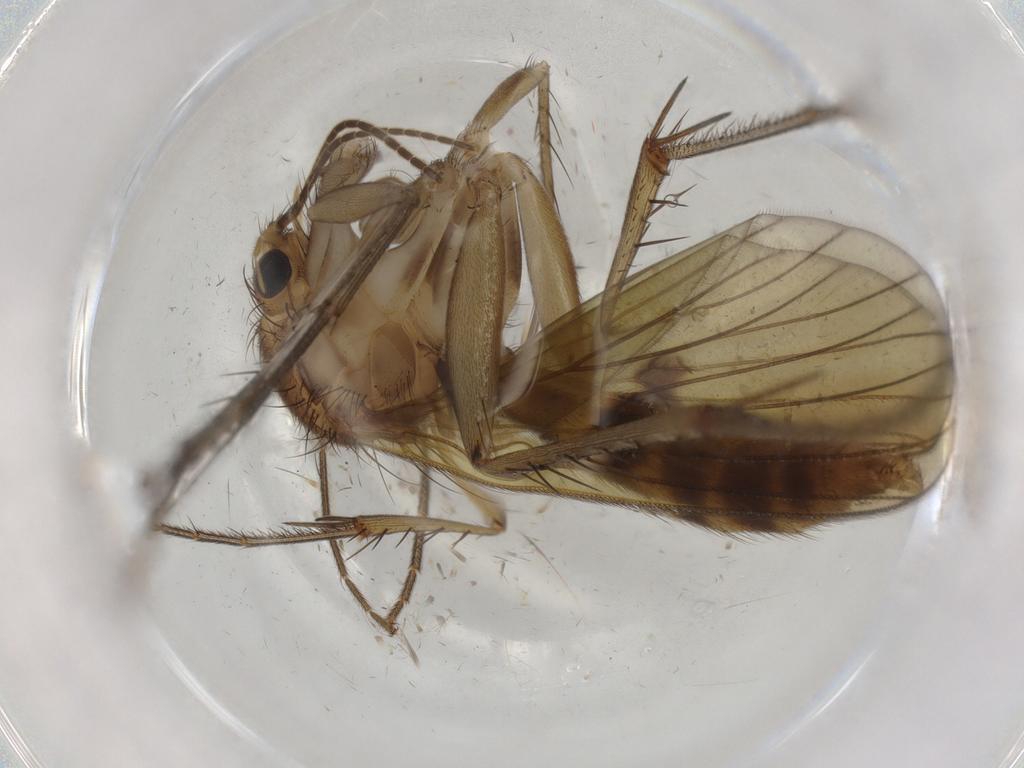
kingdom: Animalia
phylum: Arthropoda
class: Insecta
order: Diptera
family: Mycetophilidae
